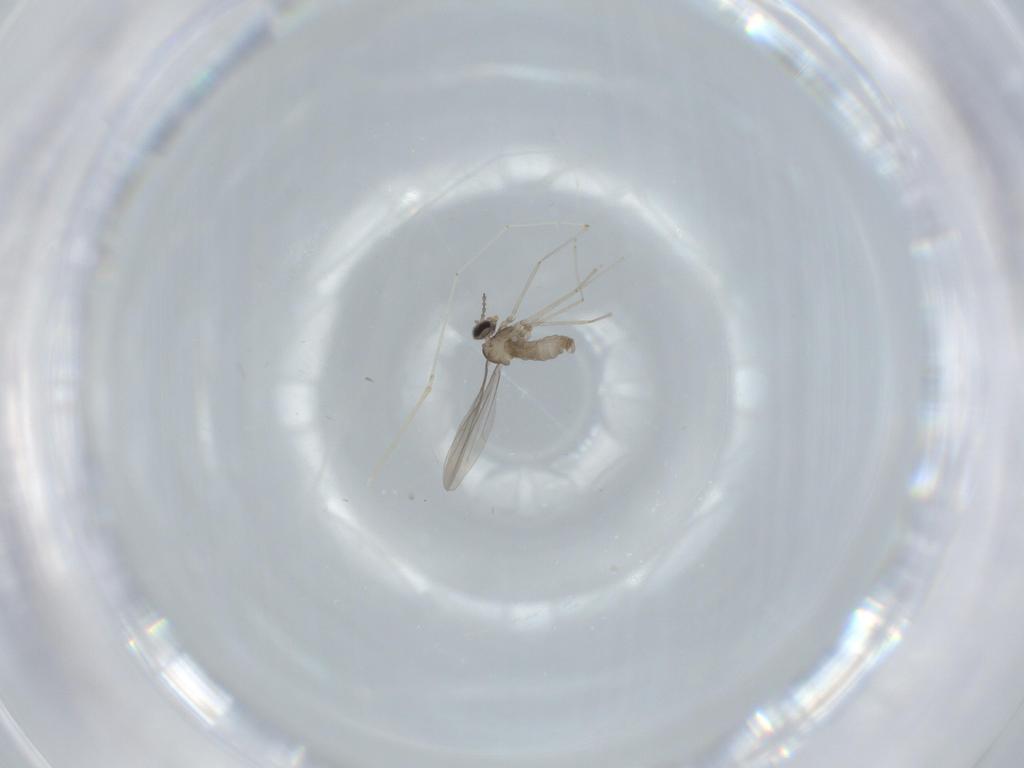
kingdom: Animalia
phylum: Arthropoda
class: Insecta
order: Diptera
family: Cecidomyiidae
